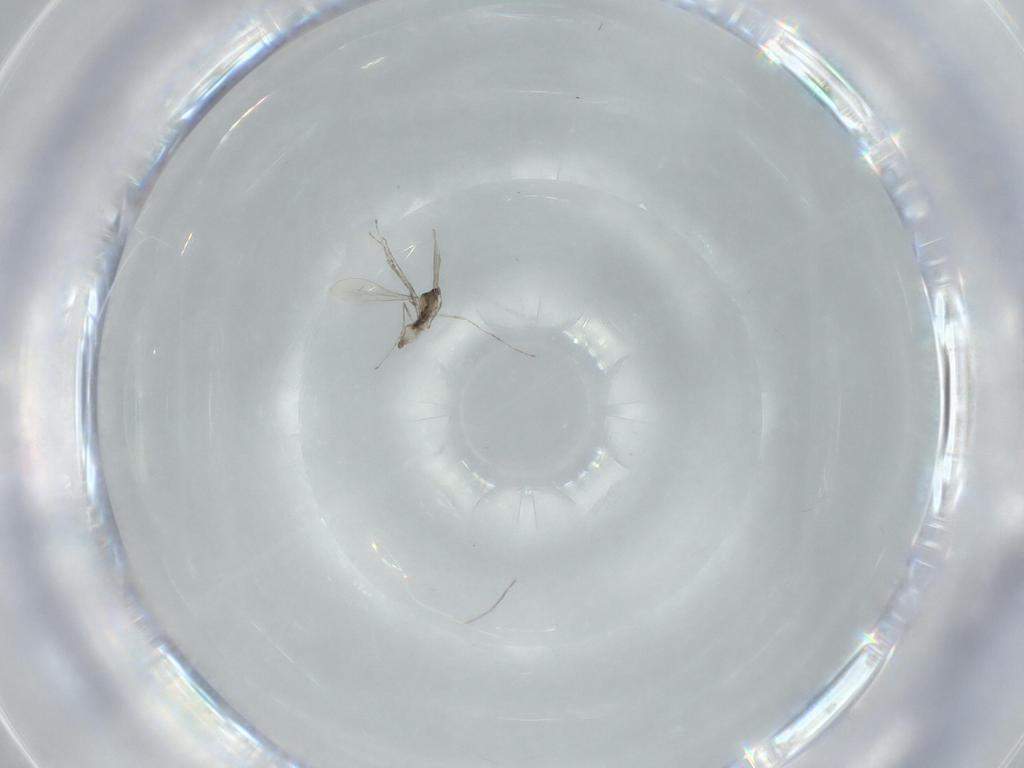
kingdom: Animalia
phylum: Arthropoda
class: Insecta
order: Diptera
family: Cecidomyiidae
